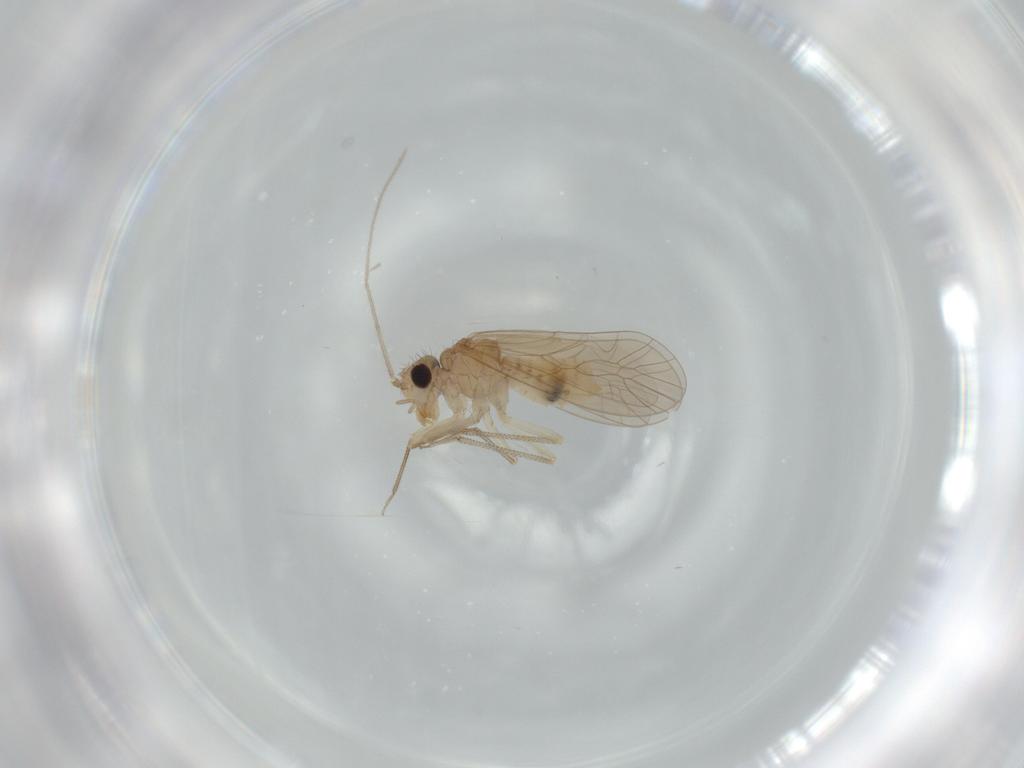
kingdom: Animalia
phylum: Arthropoda
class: Insecta
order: Psocodea
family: Caeciliusidae
